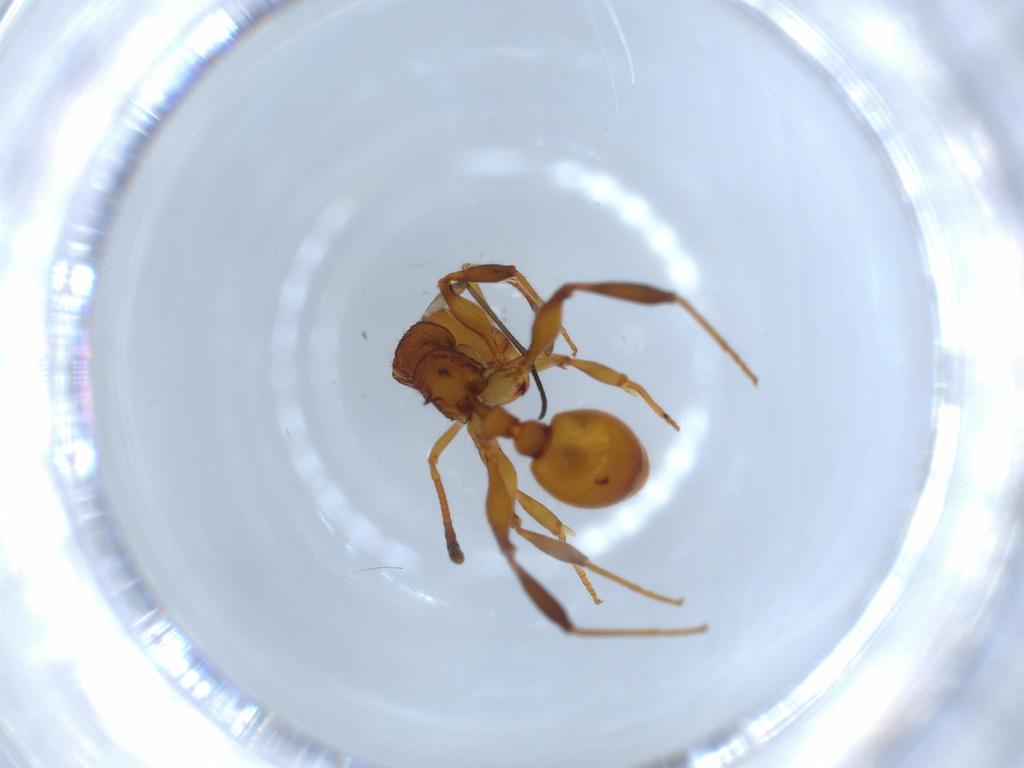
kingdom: Animalia
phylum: Arthropoda
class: Insecta
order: Hymenoptera
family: Formicidae
